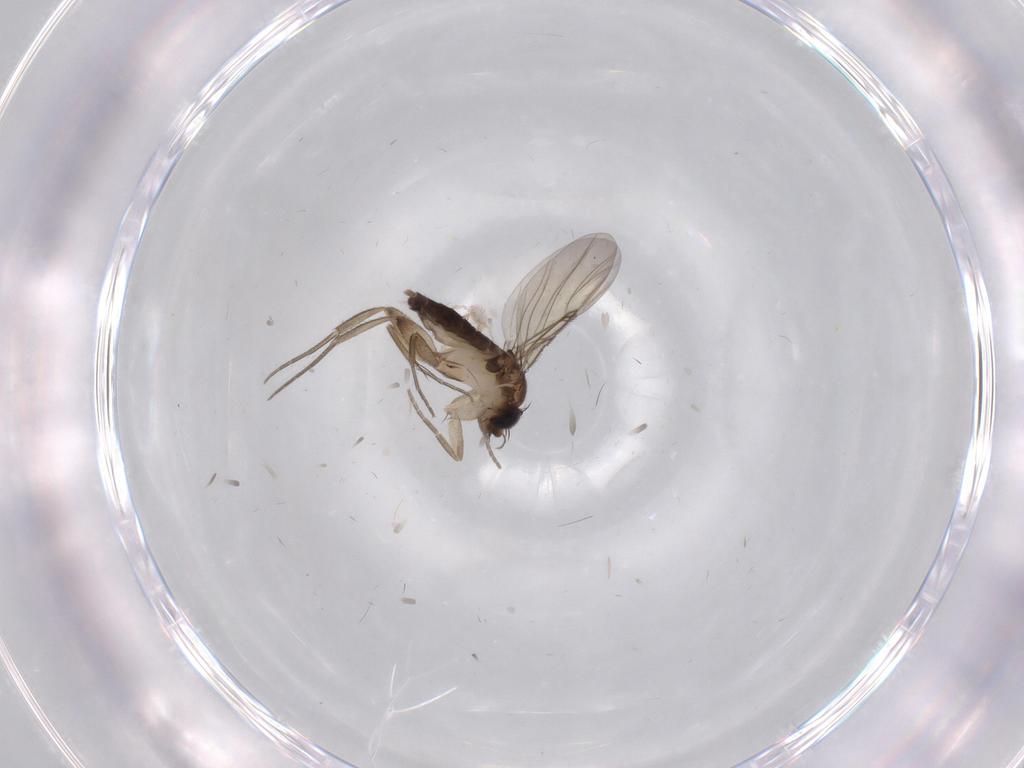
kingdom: Animalia
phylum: Arthropoda
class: Insecta
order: Diptera
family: Phoridae
